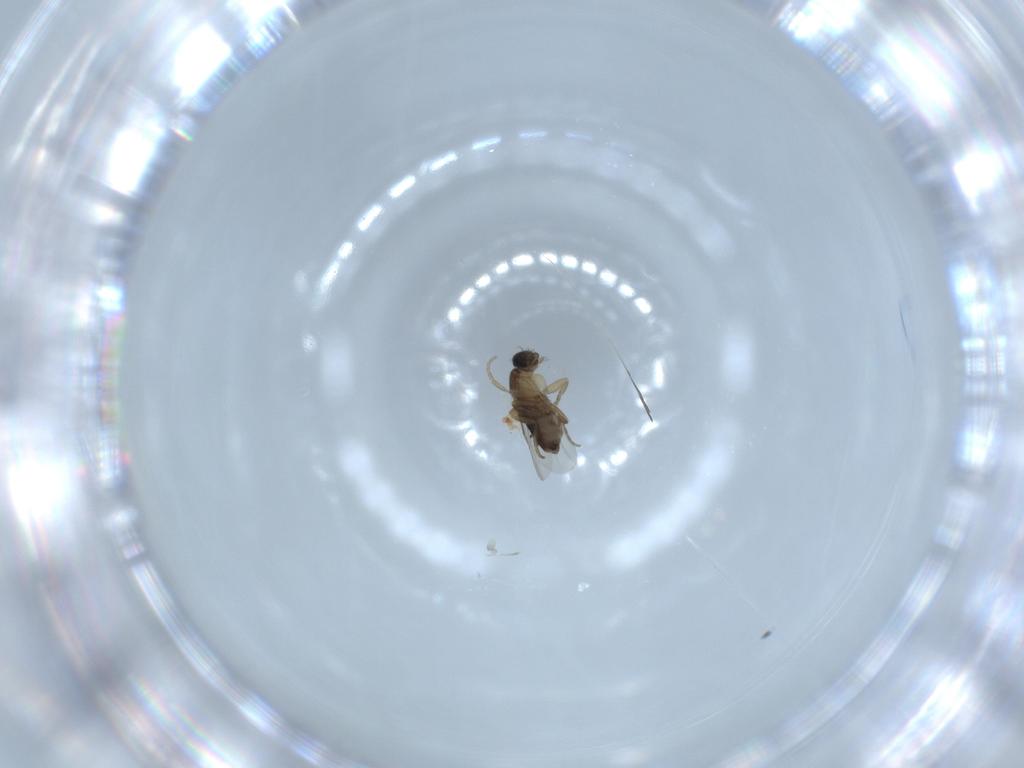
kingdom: Animalia
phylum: Arthropoda
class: Insecta
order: Diptera
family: Phoridae
